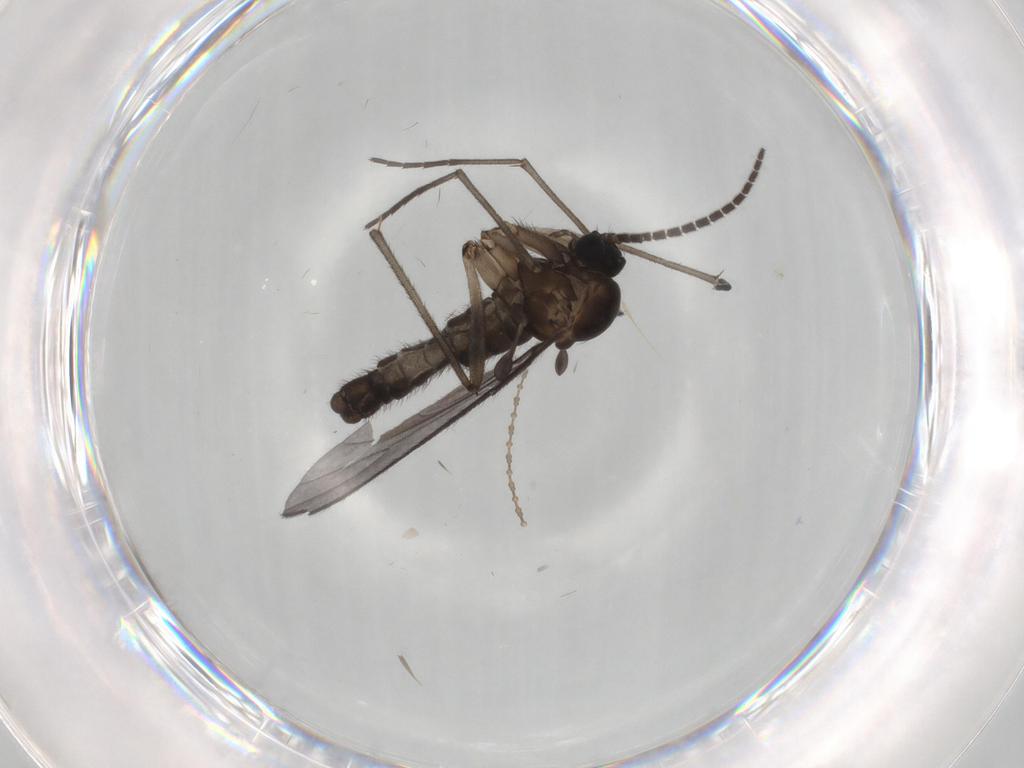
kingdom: Animalia
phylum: Arthropoda
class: Insecta
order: Diptera
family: Sciaridae
